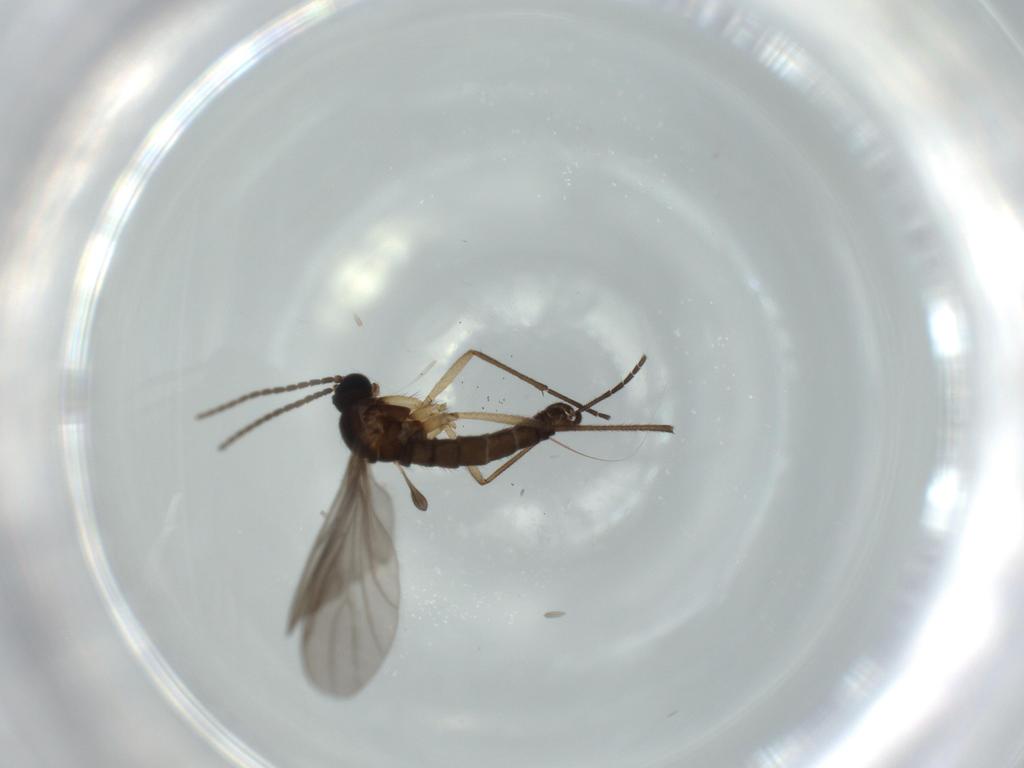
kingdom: Animalia
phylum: Arthropoda
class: Insecta
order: Diptera
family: Sciaridae
